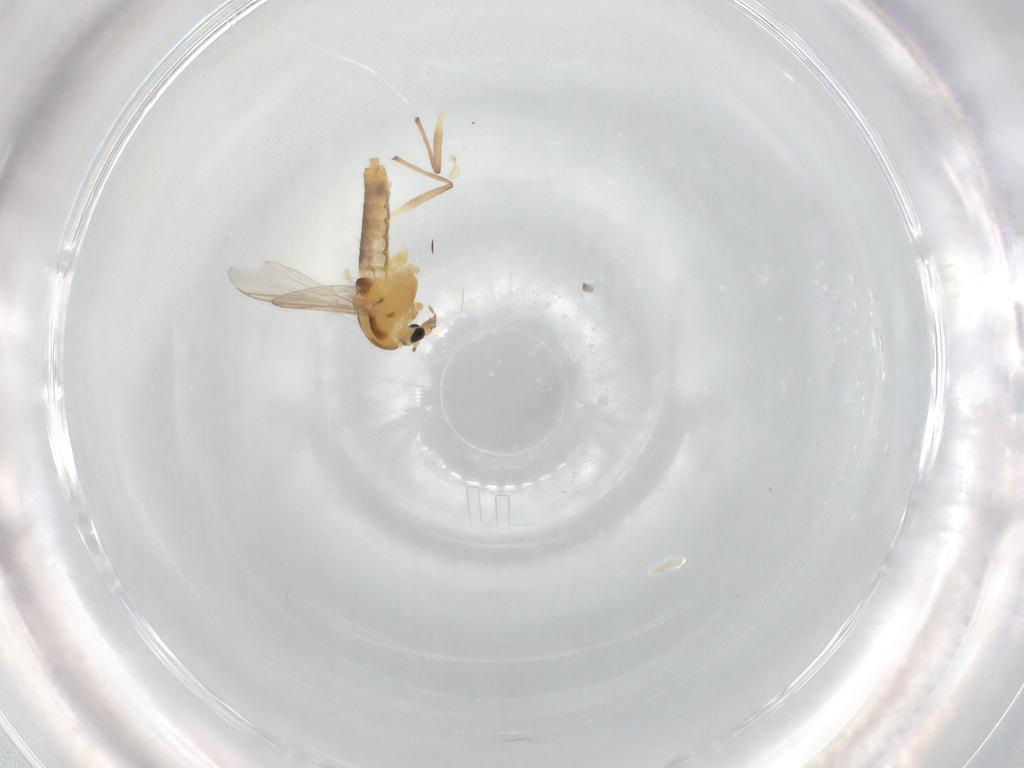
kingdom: Animalia
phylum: Arthropoda
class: Insecta
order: Diptera
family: Chironomidae
